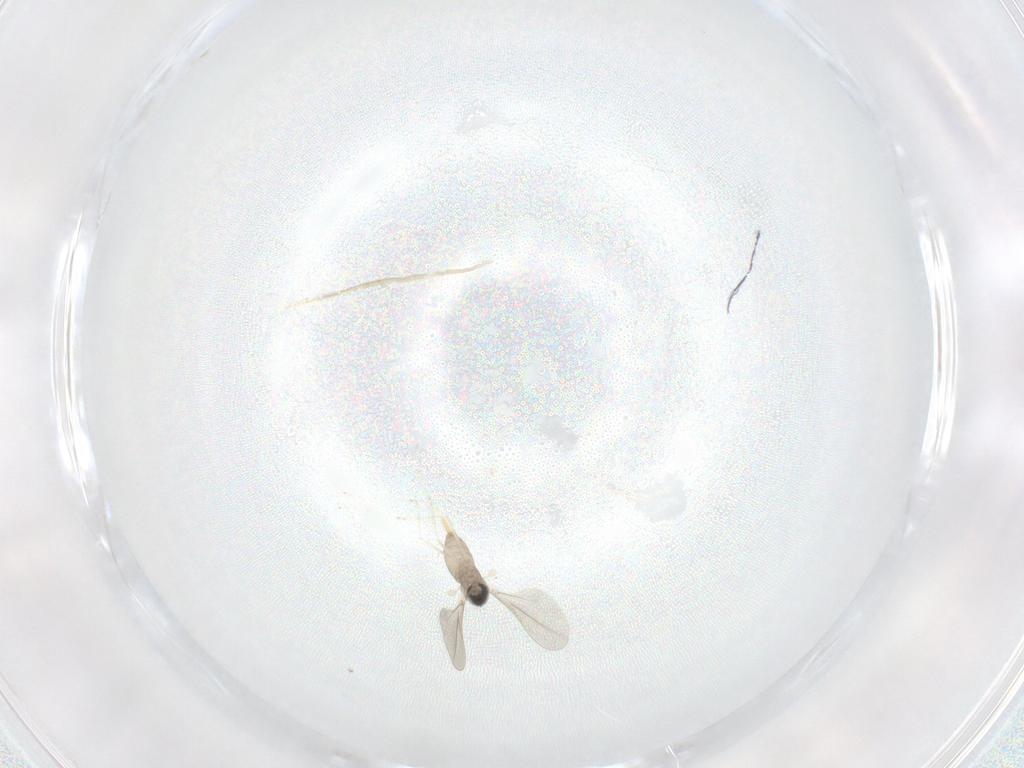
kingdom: Animalia
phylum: Arthropoda
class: Insecta
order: Diptera
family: Cecidomyiidae
